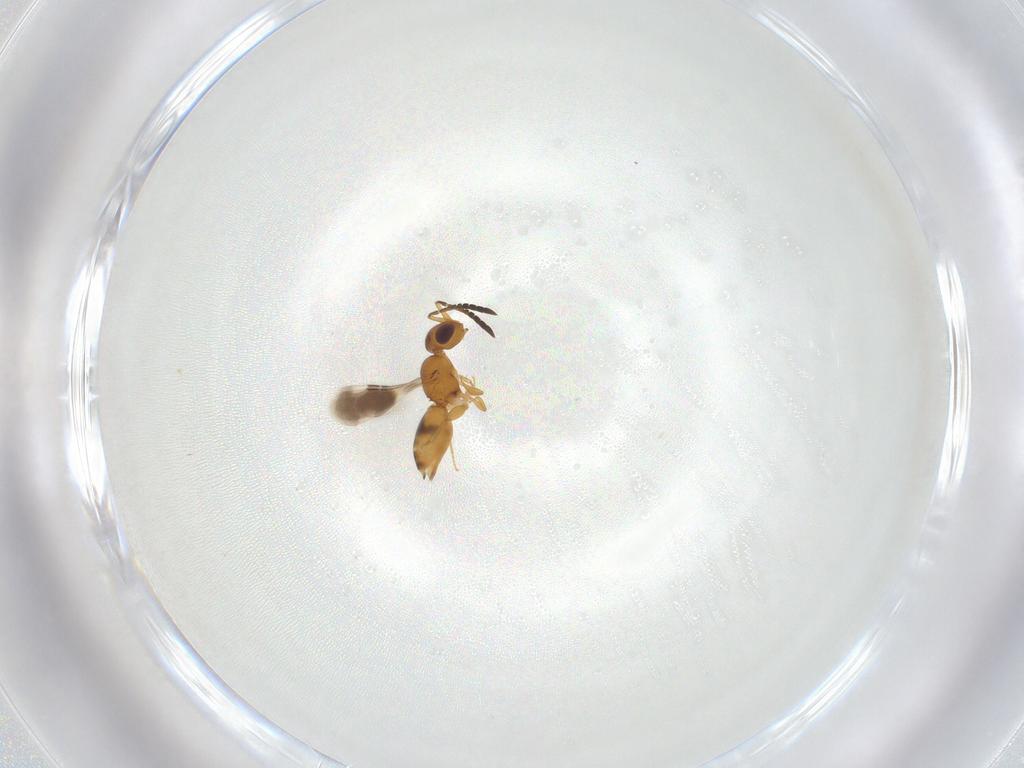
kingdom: Animalia
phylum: Arthropoda
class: Insecta
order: Hymenoptera
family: Ceraphronidae
